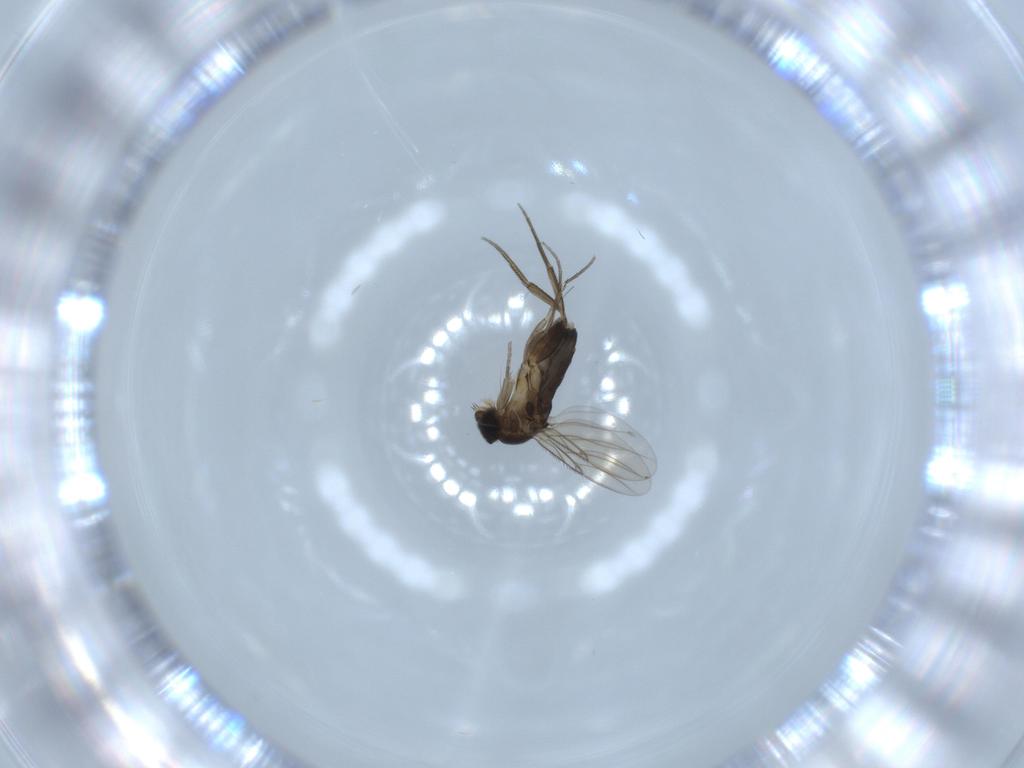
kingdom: Animalia
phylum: Arthropoda
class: Insecta
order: Diptera
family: Phoridae
